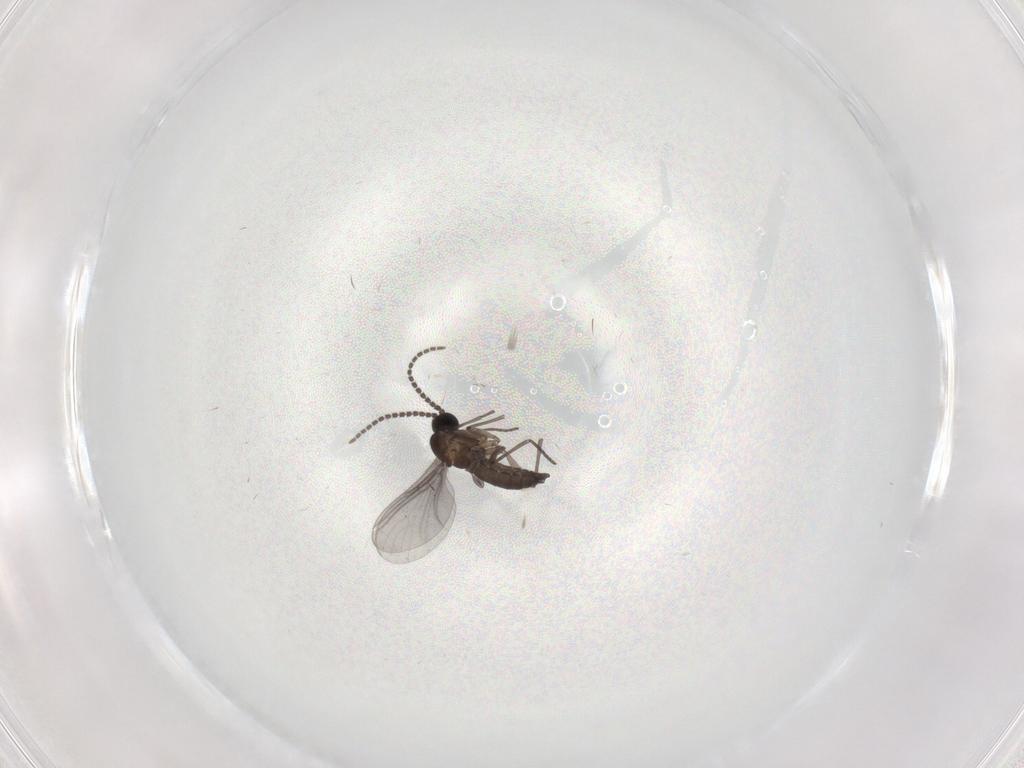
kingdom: Animalia
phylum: Arthropoda
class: Insecta
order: Diptera
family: Sciaridae
